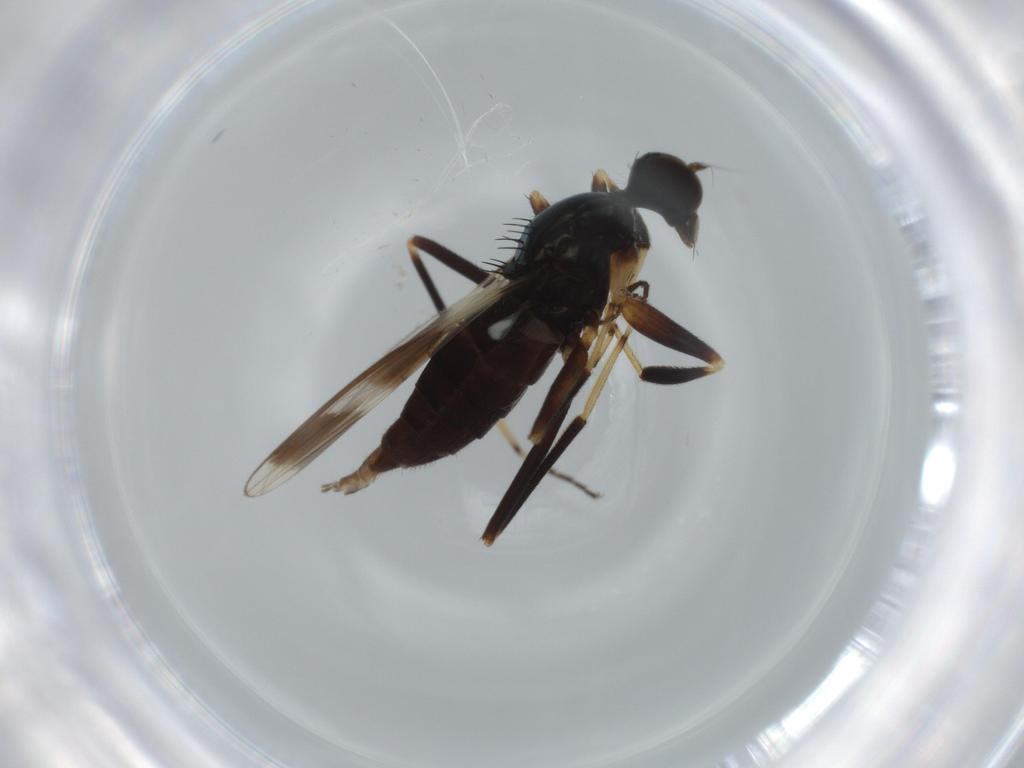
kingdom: Animalia
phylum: Arthropoda
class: Insecta
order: Diptera
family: Hybotidae
